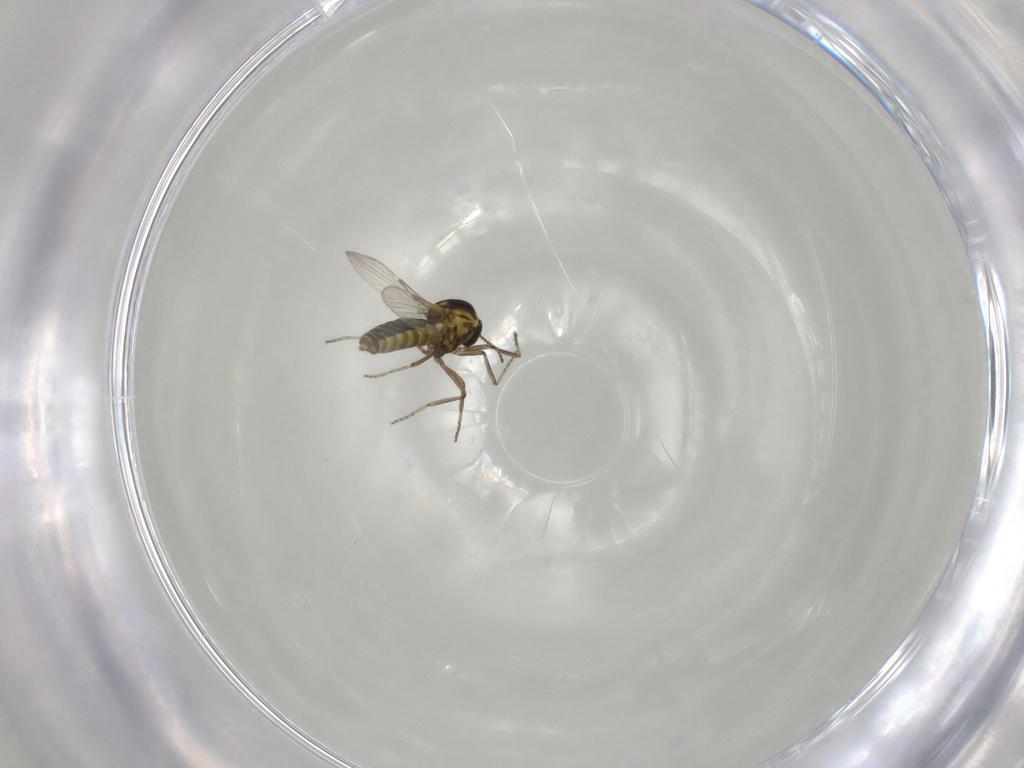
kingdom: Animalia
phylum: Arthropoda
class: Insecta
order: Diptera
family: Ceratopogonidae
